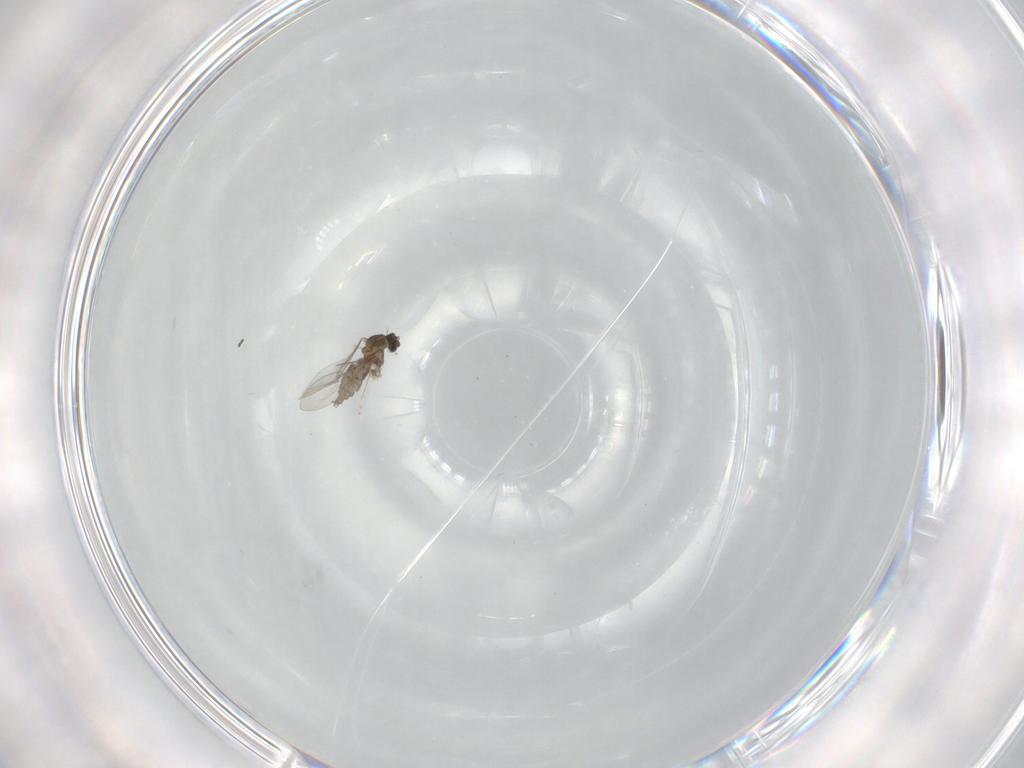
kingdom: Animalia
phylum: Arthropoda
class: Insecta
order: Diptera
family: Cecidomyiidae
